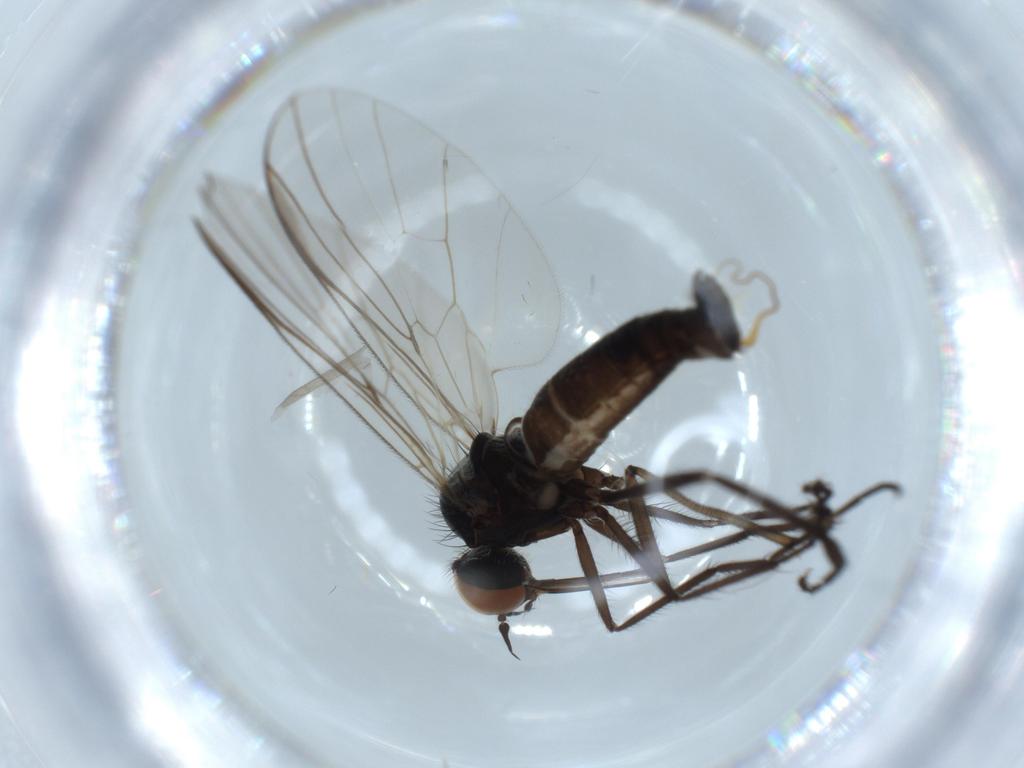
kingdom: Animalia
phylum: Arthropoda
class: Insecta
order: Diptera
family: Empididae
